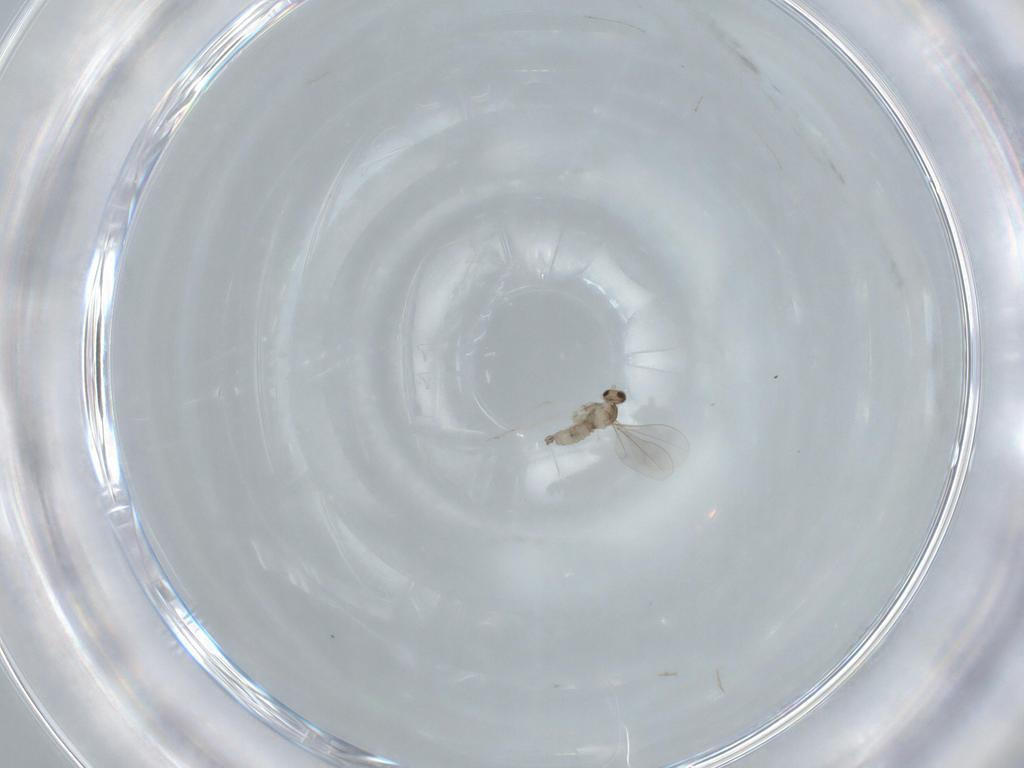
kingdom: Animalia
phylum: Arthropoda
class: Insecta
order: Diptera
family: Cecidomyiidae
